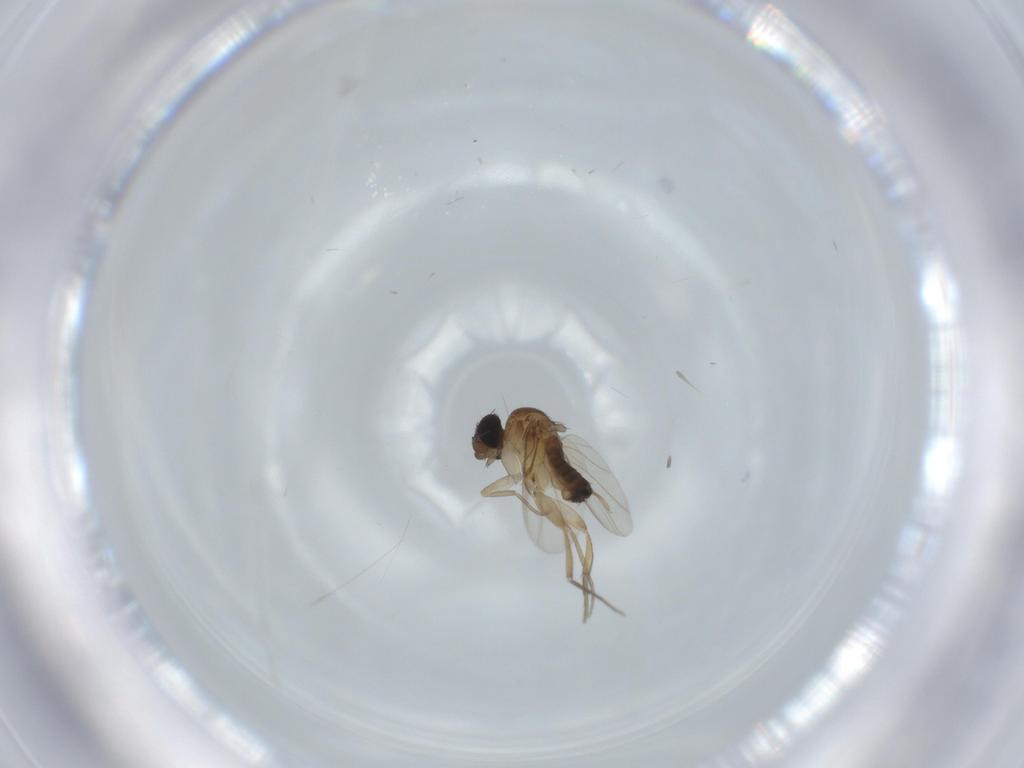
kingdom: Animalia
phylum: Arthropoda
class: Insecta
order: Diptera
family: Phoridae
